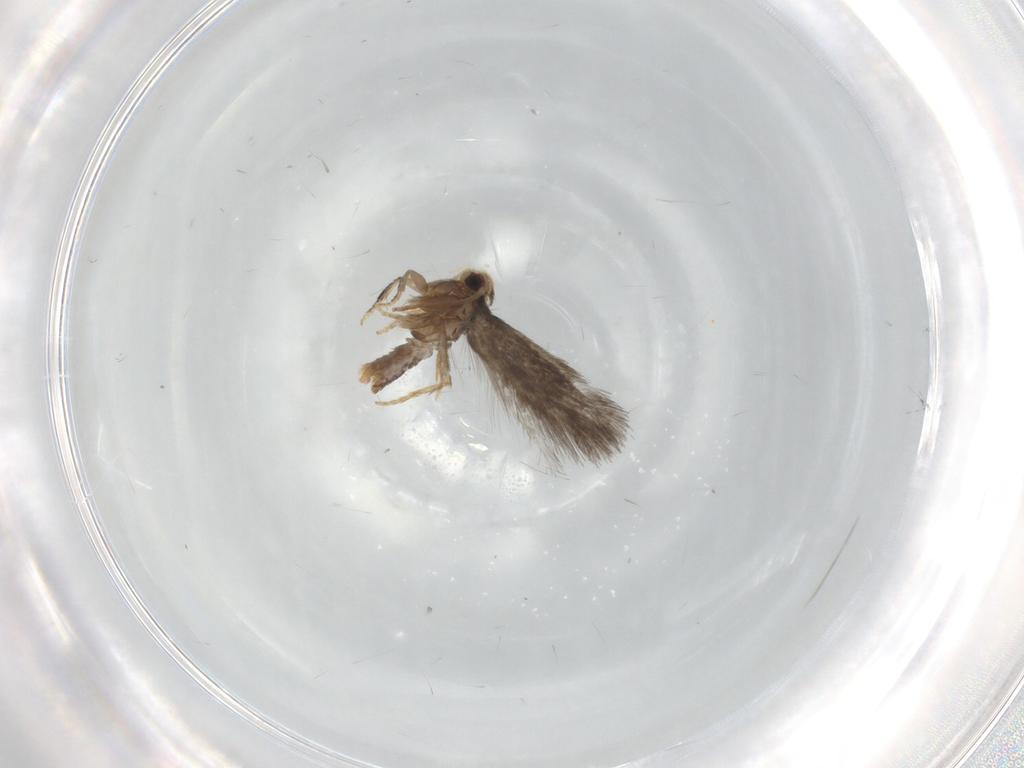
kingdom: Animalia
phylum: Arthropoda
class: Insecta
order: Lepidoptera
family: Nepticulidae
